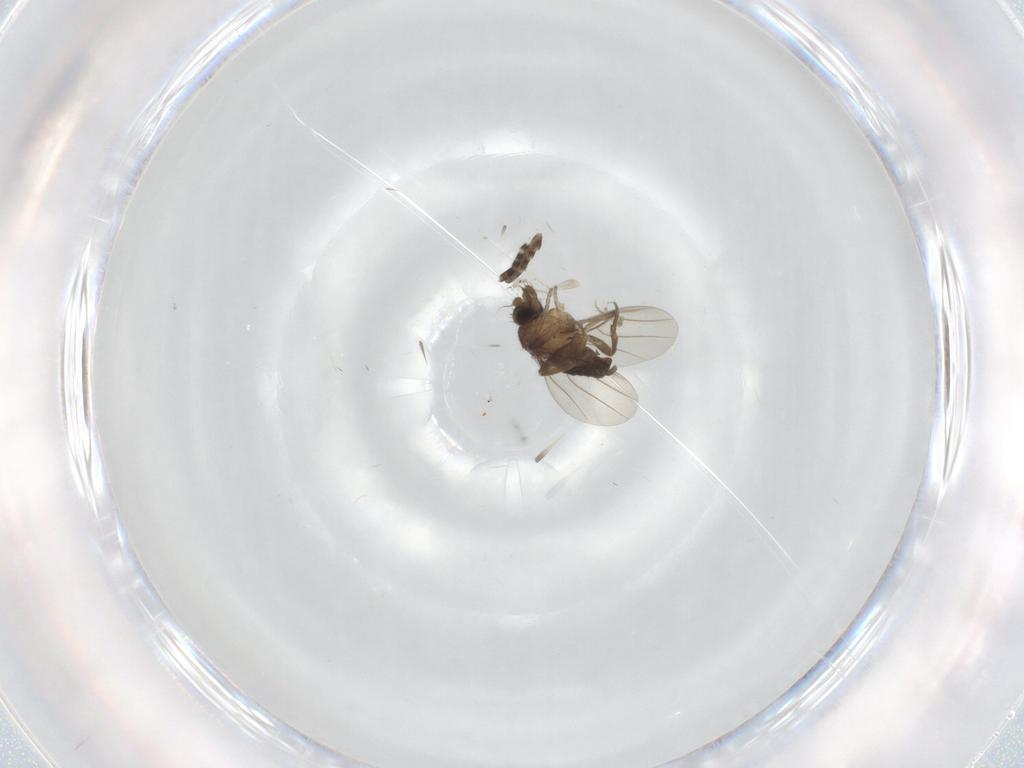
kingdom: Animalia
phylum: Arthropoda
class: Insecta
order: Diptera
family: Phoridae
